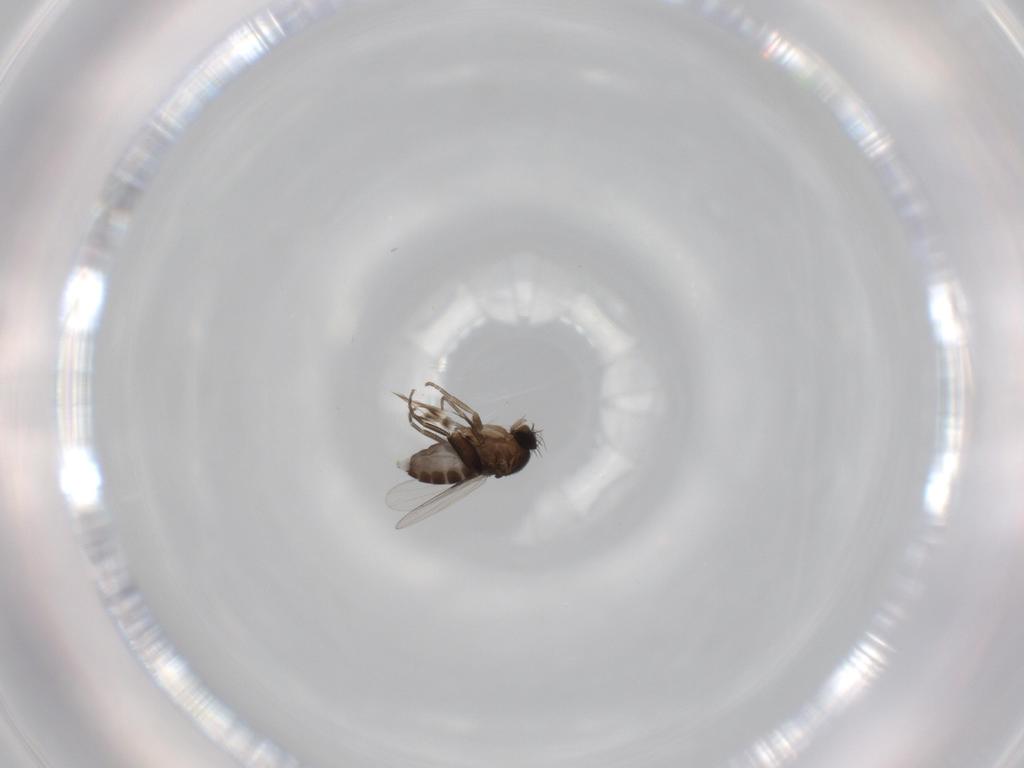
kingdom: Animalia
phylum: Arthropoda
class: Insecta
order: Diptera
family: Phoridae
